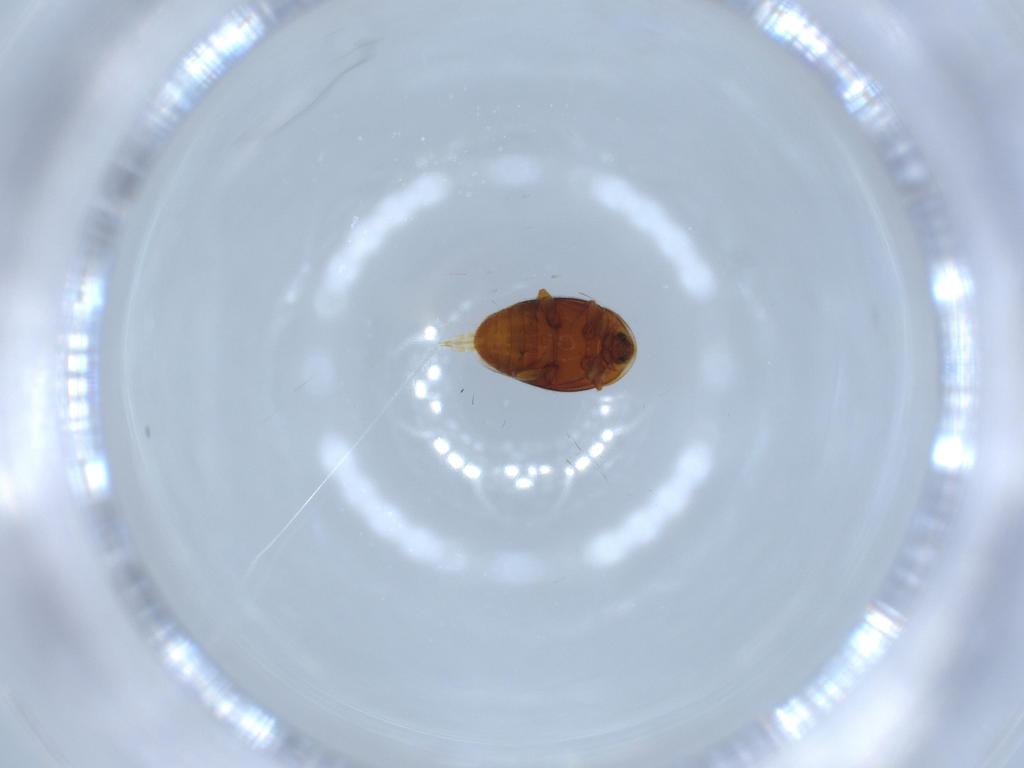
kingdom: Animalia
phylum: Arthropoda
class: Insecta
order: Coleoptera
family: Corylophidae
